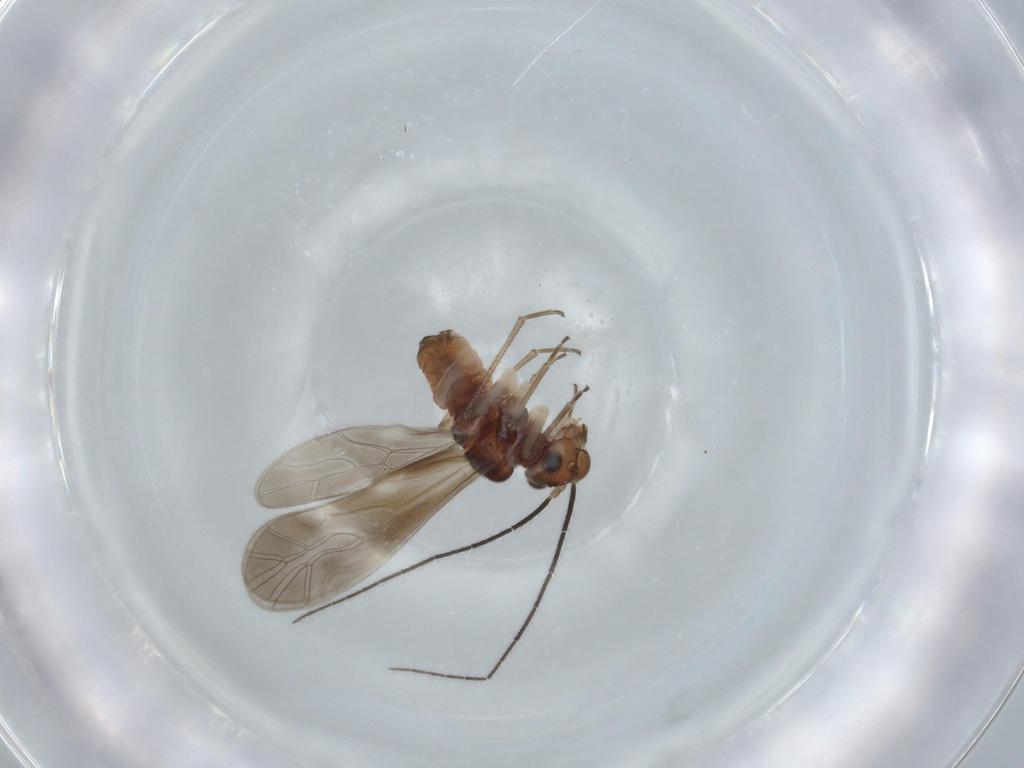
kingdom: Animalia
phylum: Arthropoda
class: Insecta
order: Psocodea
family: Caeciliusidae
